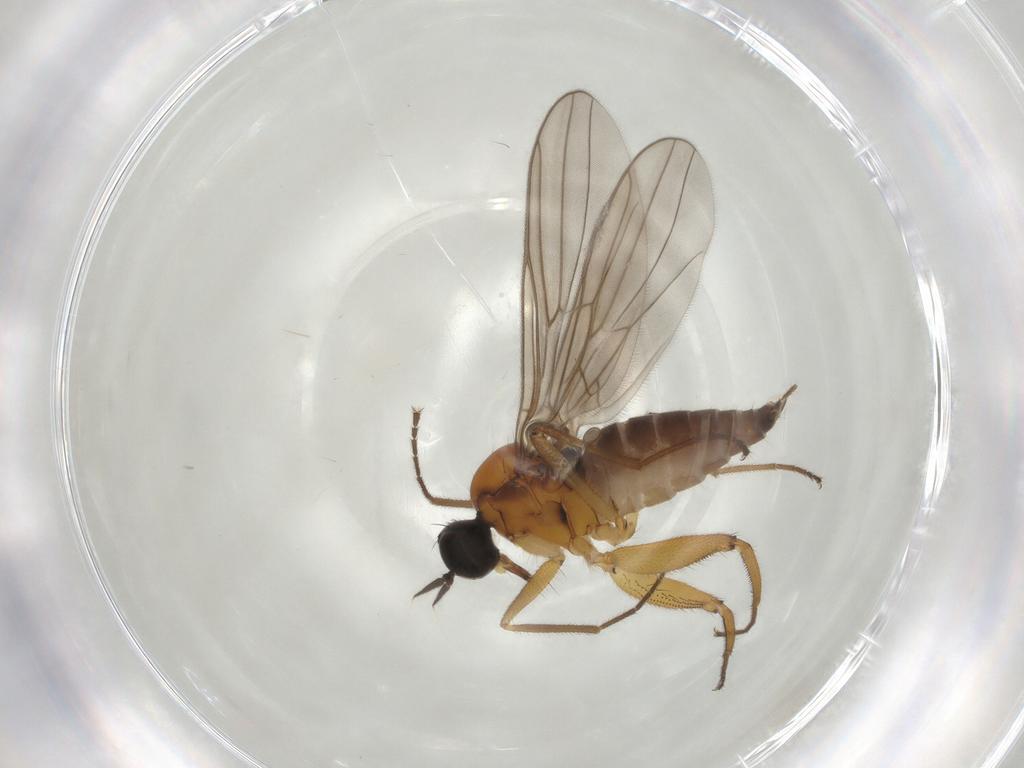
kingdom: Animalia
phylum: Arthropoda
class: Insecta
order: Diptera
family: Hybotidae
